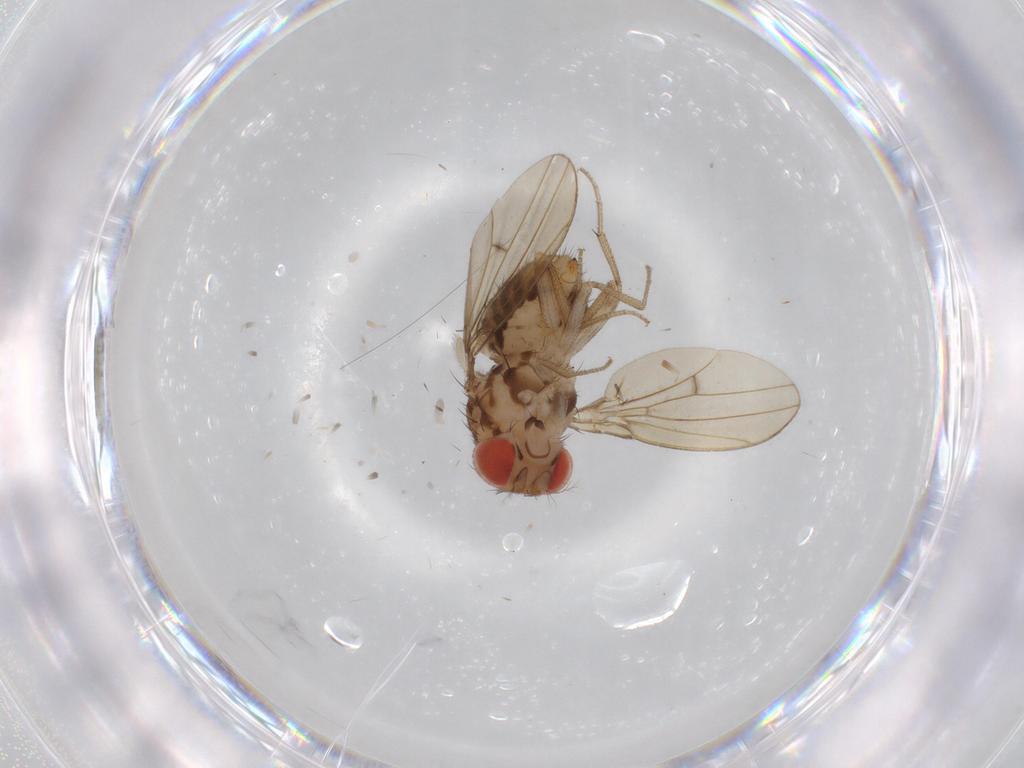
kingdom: Animalia
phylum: Arthropoda
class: Insecta
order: Diptera
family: Drosophilidae
